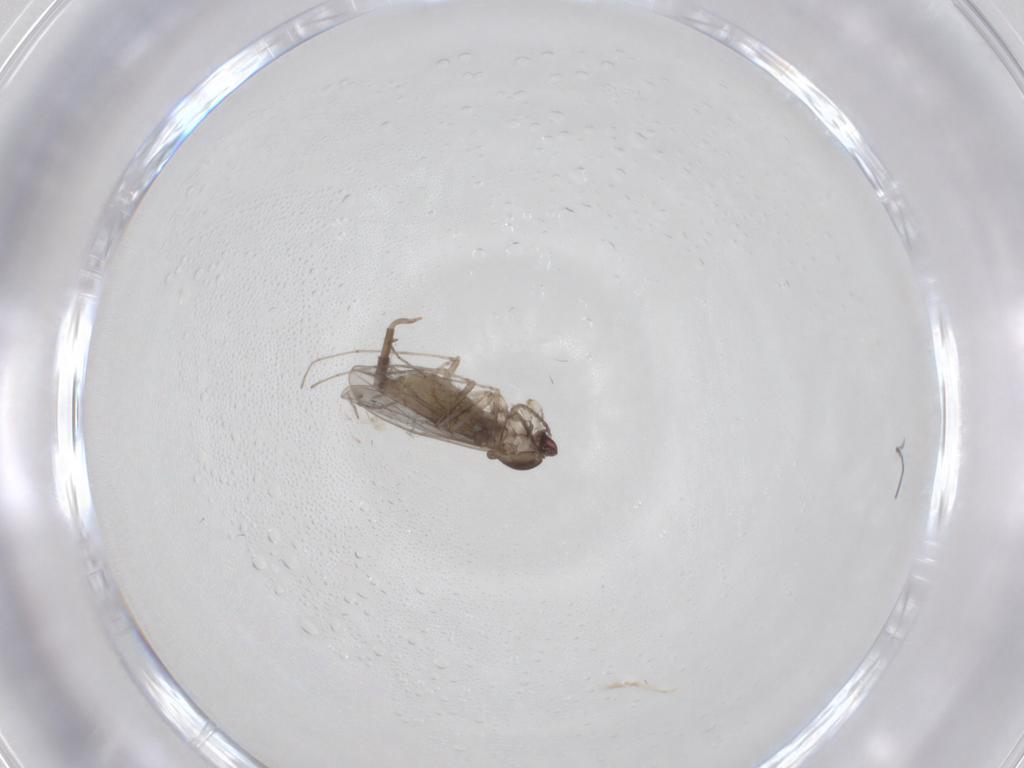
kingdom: Animalia
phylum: Arthropoda
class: Insecta
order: Diptera
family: Cecidomyiidae
